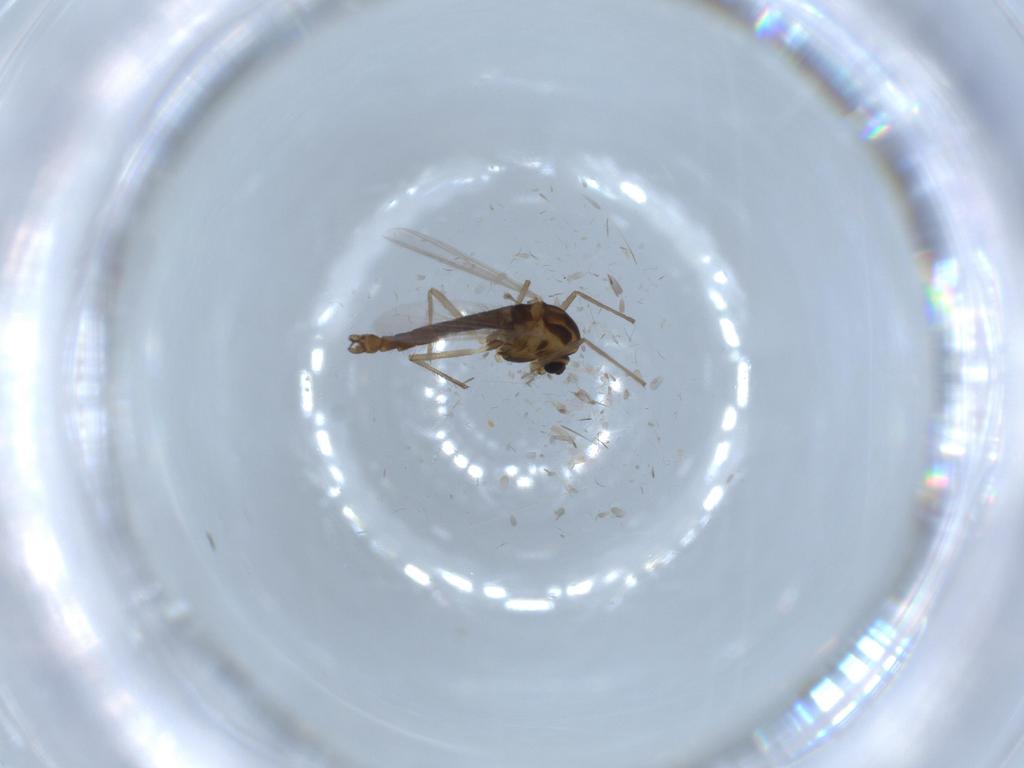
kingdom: Animalia
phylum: Arthropoda
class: Insecta
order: Diptera
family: Chironomidae
